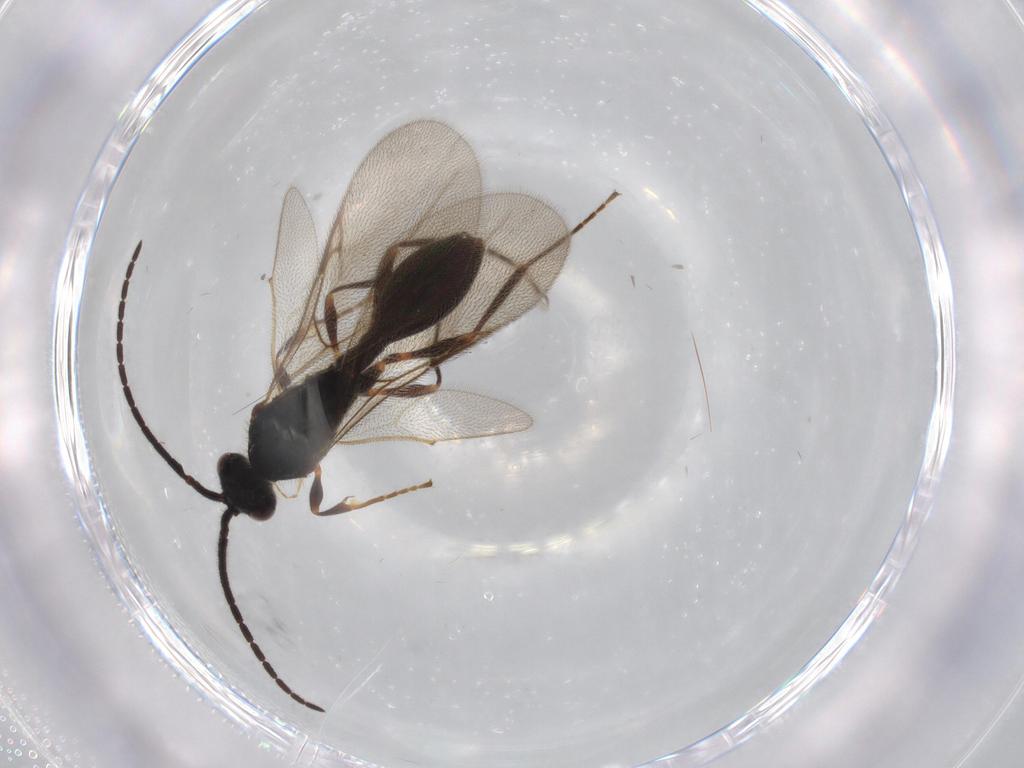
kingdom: Animalia
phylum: Arthropoda
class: Insecta
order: Hymenoptera
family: Diapriidae
